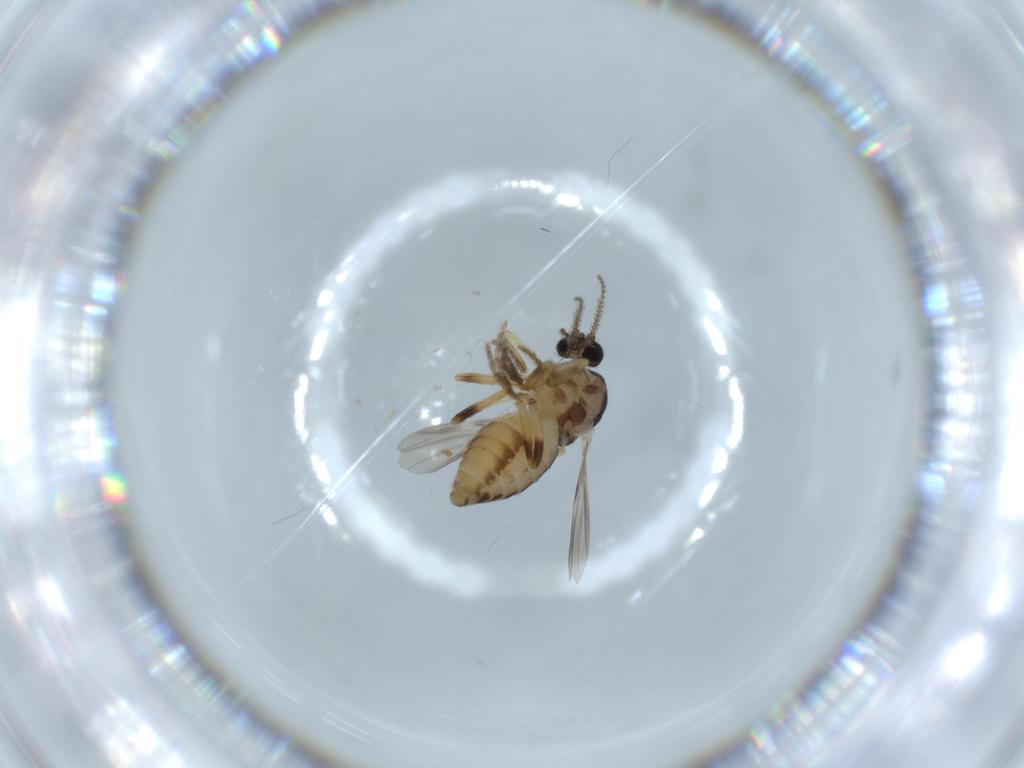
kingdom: Animalia
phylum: Arthropoda
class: Insecta
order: Diptera
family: Ceratopogonidae
